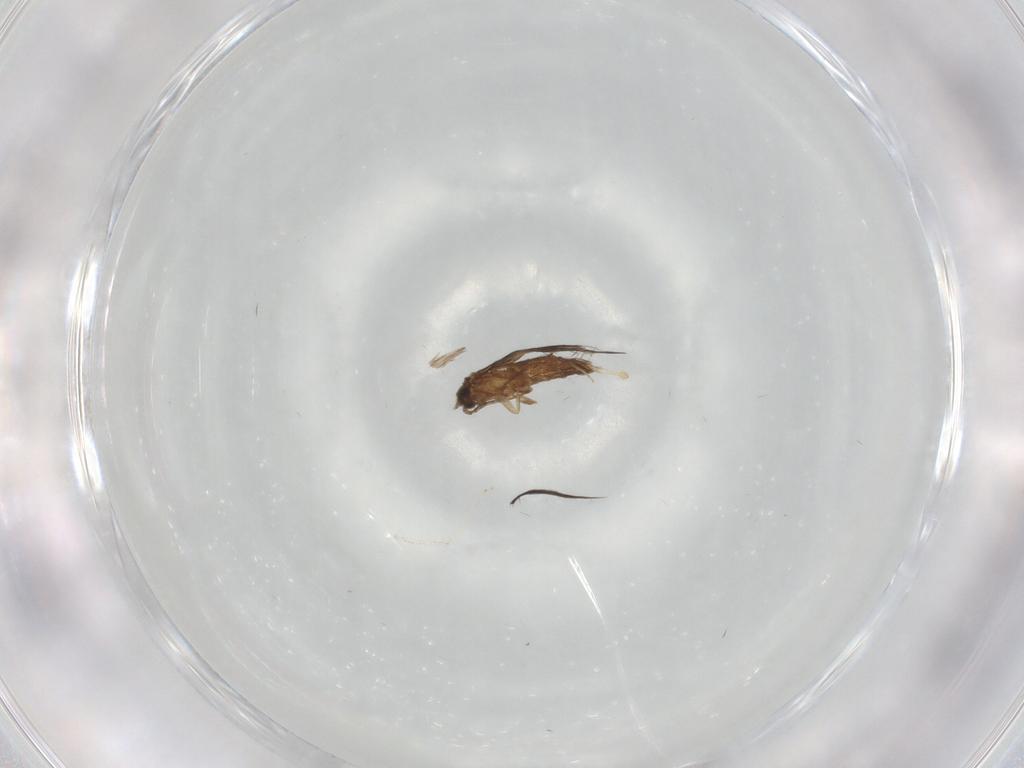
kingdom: Animalia
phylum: Arthropoda
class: Insecta
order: Diptera
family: Chironomidae
